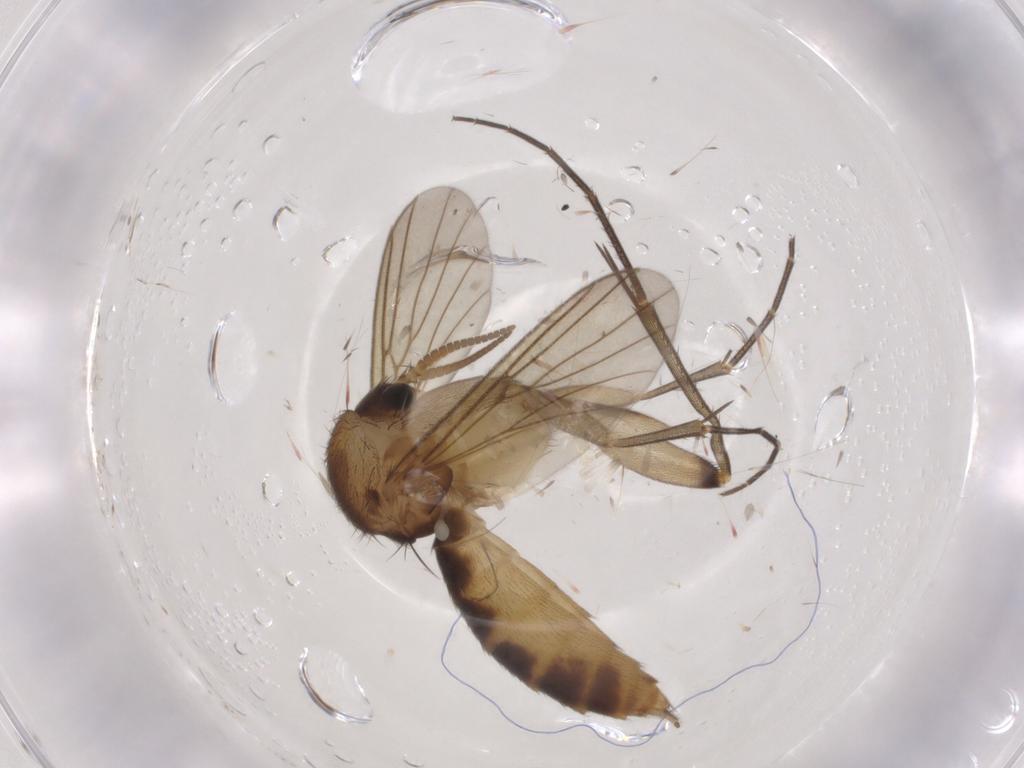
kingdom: Animalia
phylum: Arthropoda
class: Insecta
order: Diptera
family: Mycetophilidae
